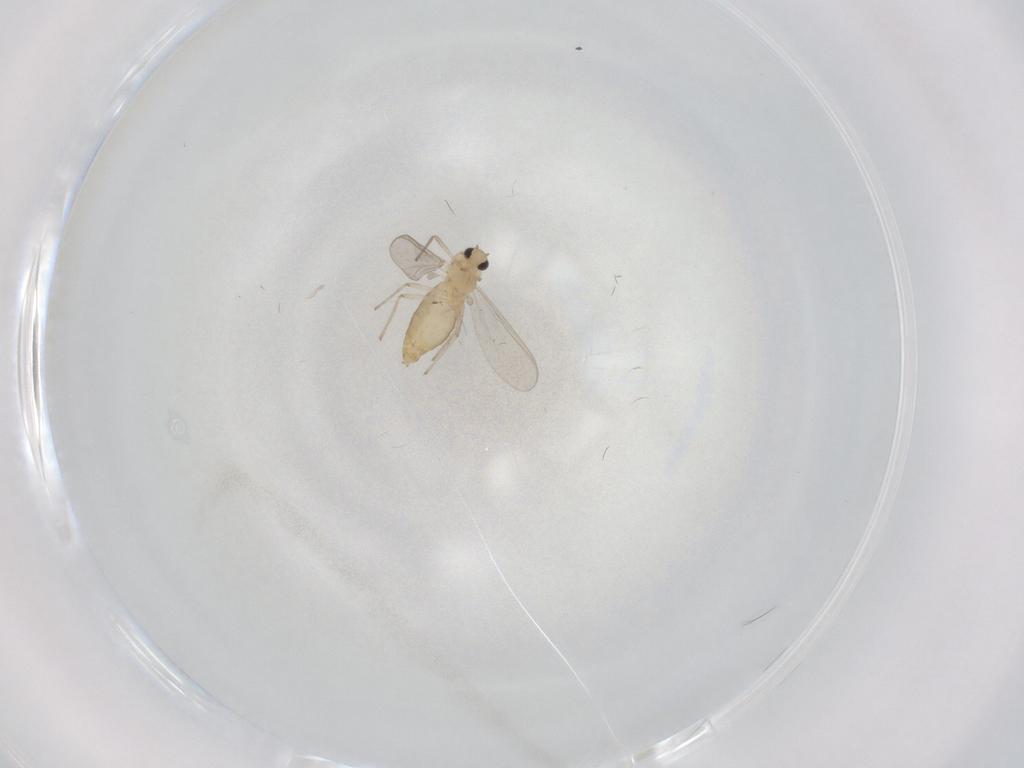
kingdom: Animalia
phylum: Arthropoda
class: Insecta
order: Diptera
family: Chironomidae
